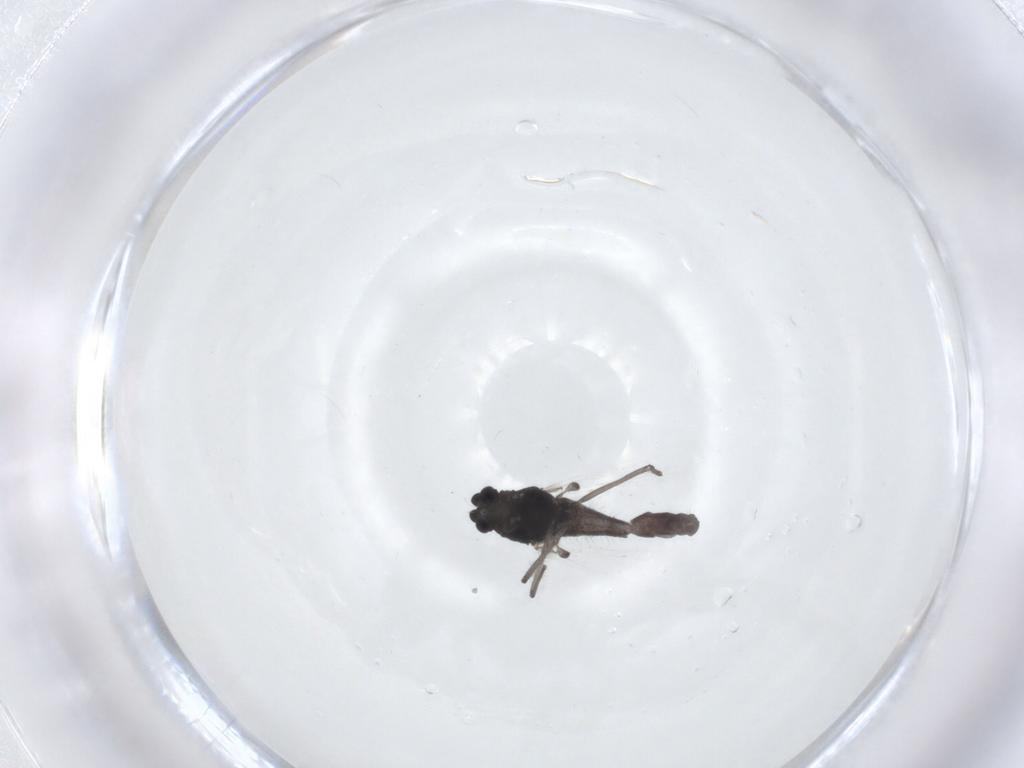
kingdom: Animalia
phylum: Arthropoda
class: Insecta
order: Diptera
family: Chironomidae
